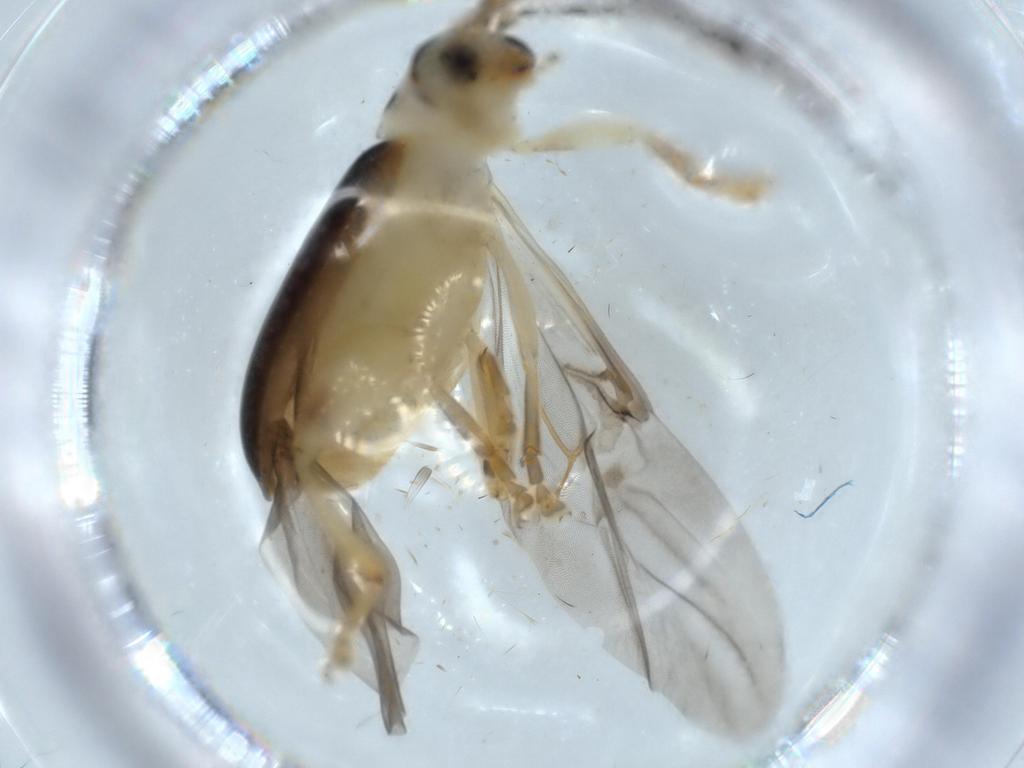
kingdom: Animalia
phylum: Arthropoda
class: Insecta
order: Coleoptera
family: Chrysomelidae
